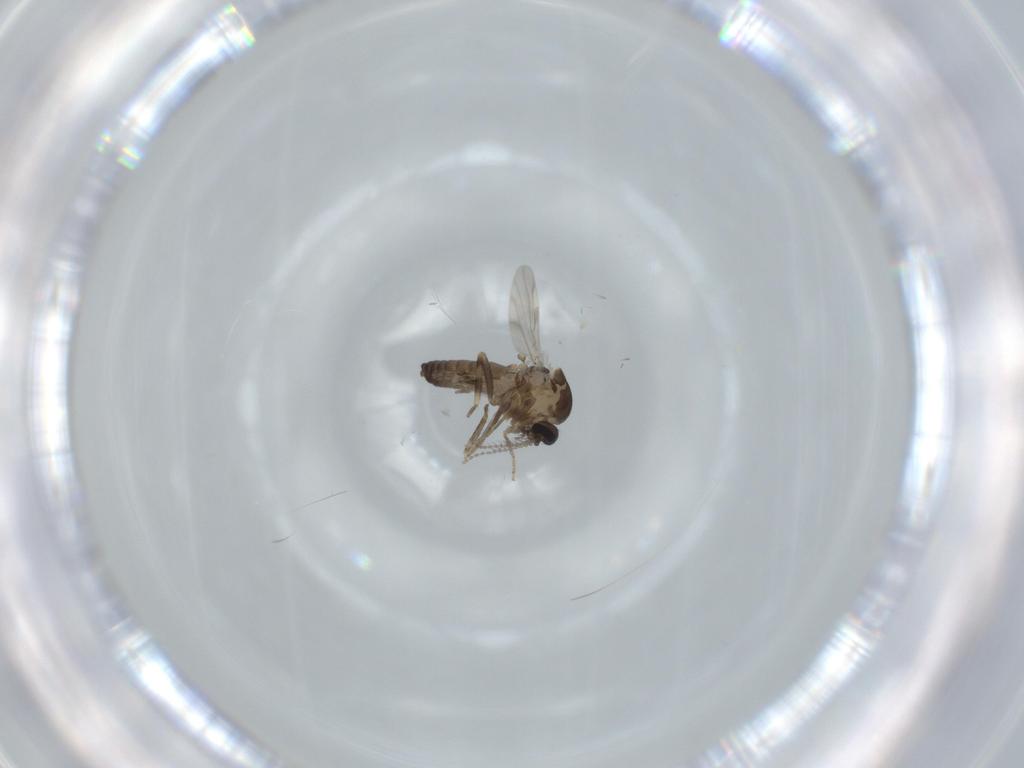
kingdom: Animalia
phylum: Arthropoda
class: Insecta
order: Diptera
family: Ceratopogonidae
